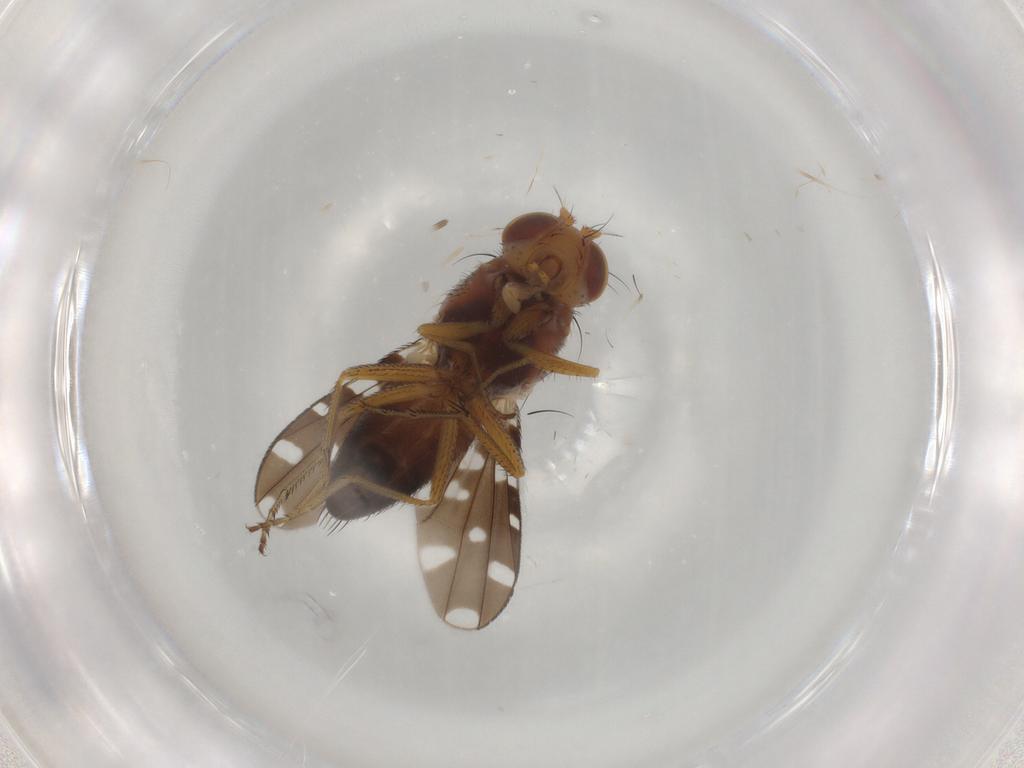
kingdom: Animalia
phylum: Arthropoda
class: Insecta
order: Diptera
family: Ephydridae
